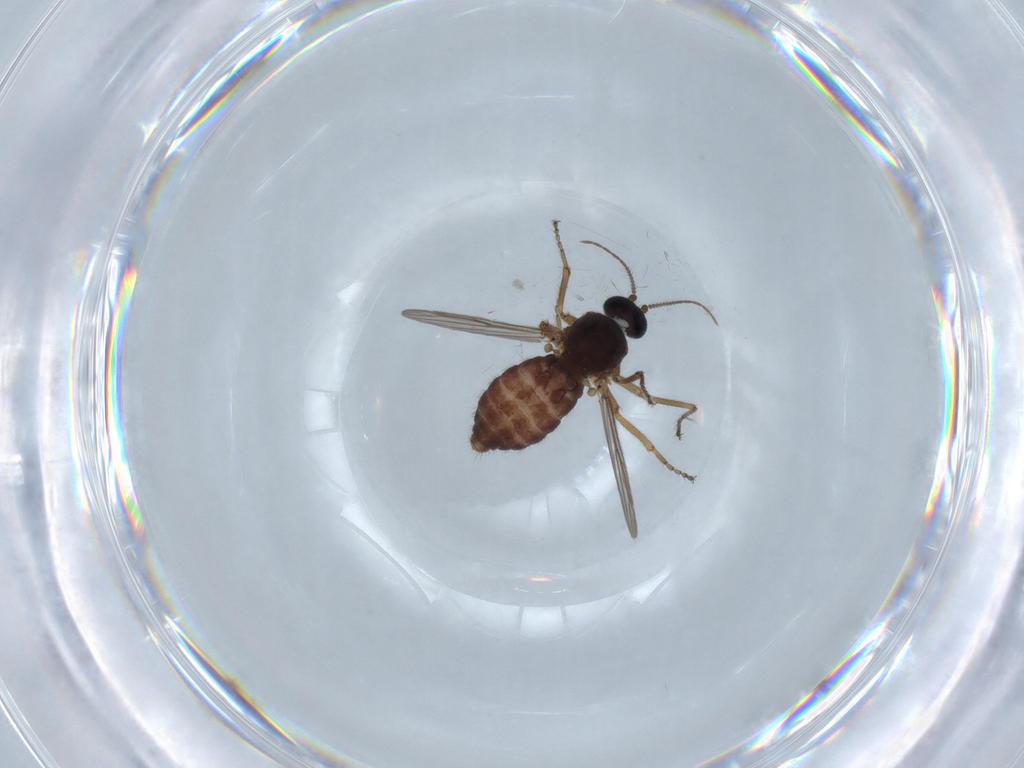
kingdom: Animalia
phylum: Arthropoda
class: Insecta
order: Diptera
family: Ceratopogonidae
